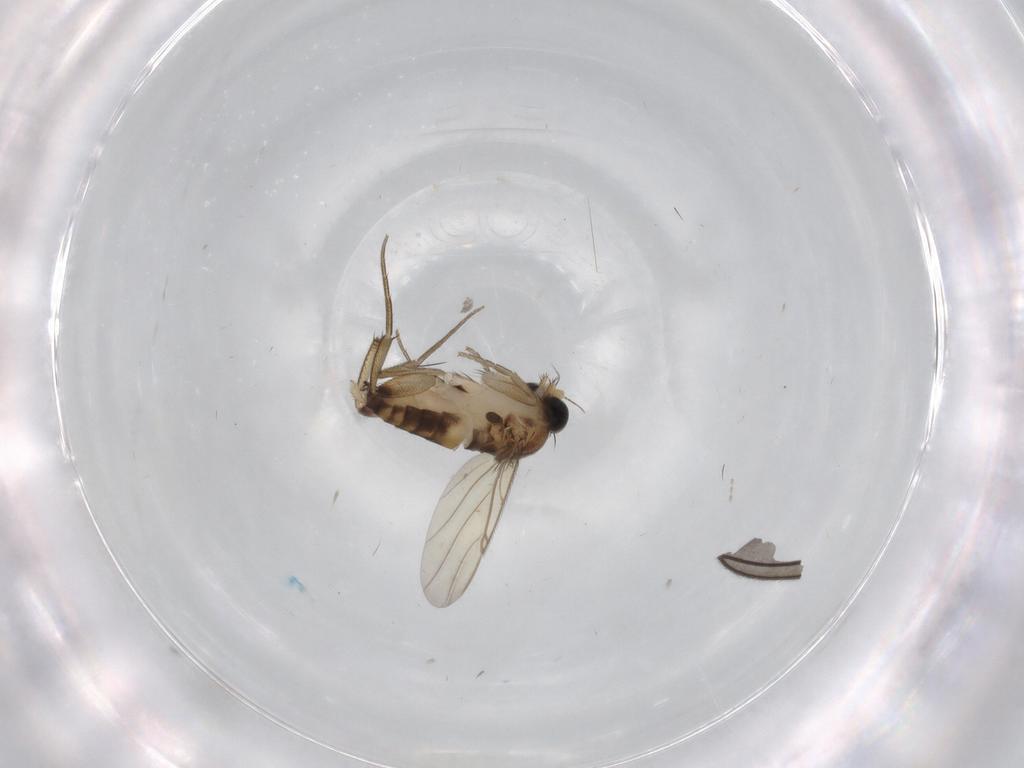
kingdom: Animalia
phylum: Arthropoda
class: Insecta
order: Diptera
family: Phoridae
